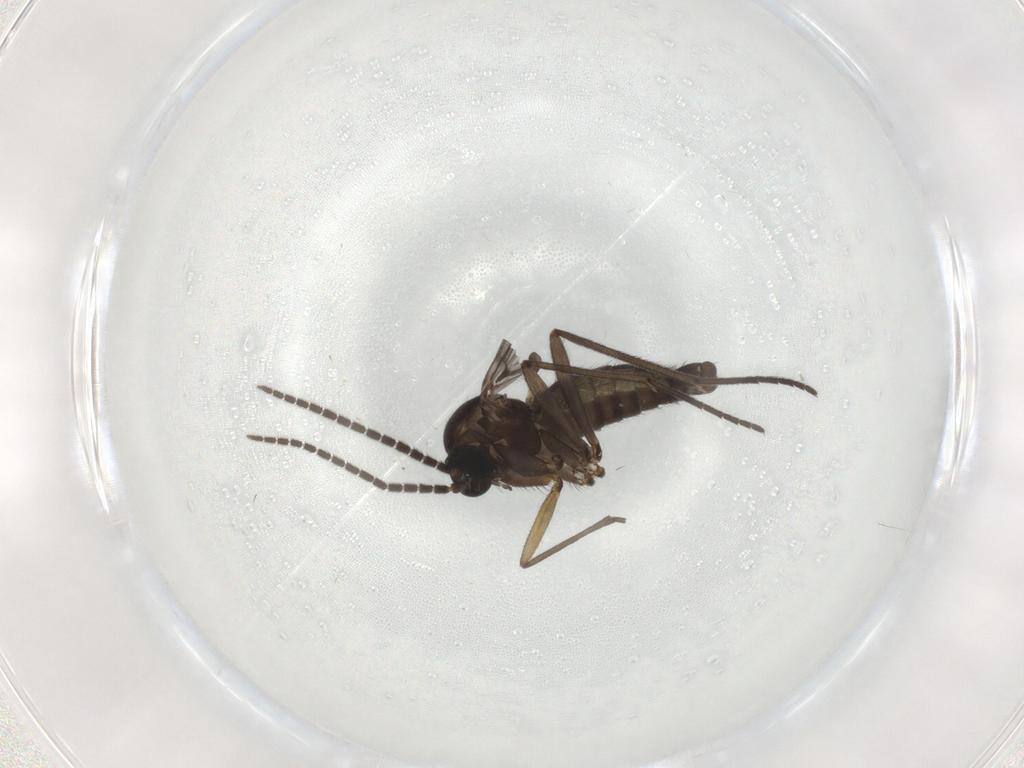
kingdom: Animalia
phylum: Arthropoda
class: Insecta
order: Diptera
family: Sciaridae
